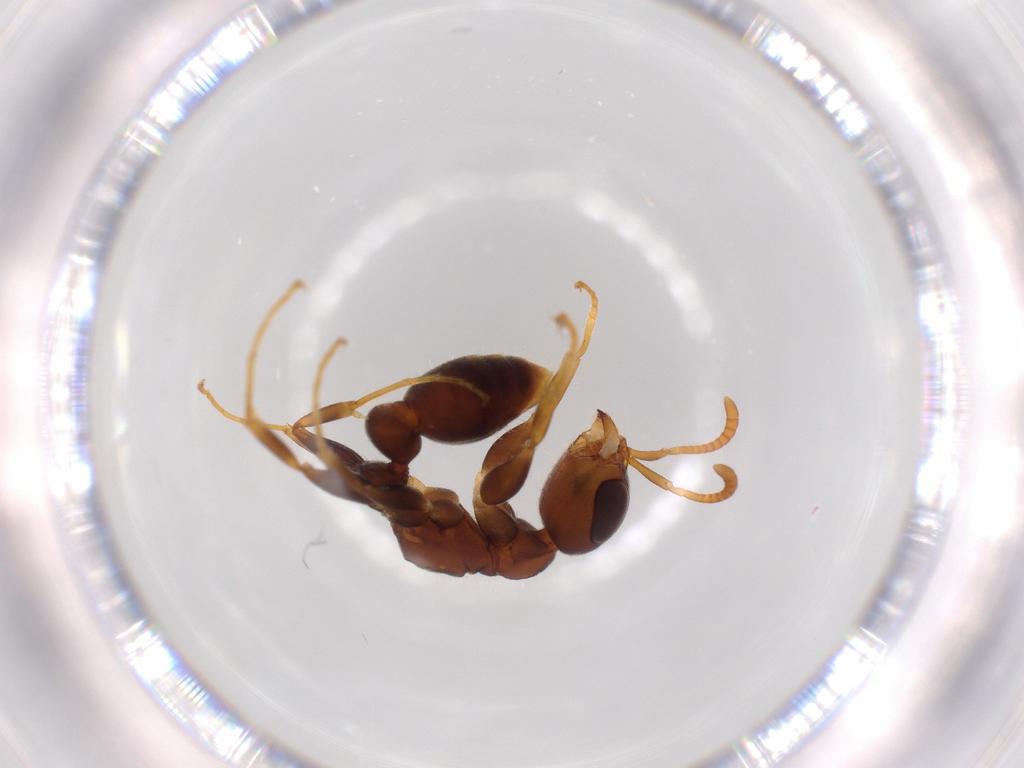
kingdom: Animalia
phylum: Arthropoda
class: Insecta
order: Hymenoptera
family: Formicidae
